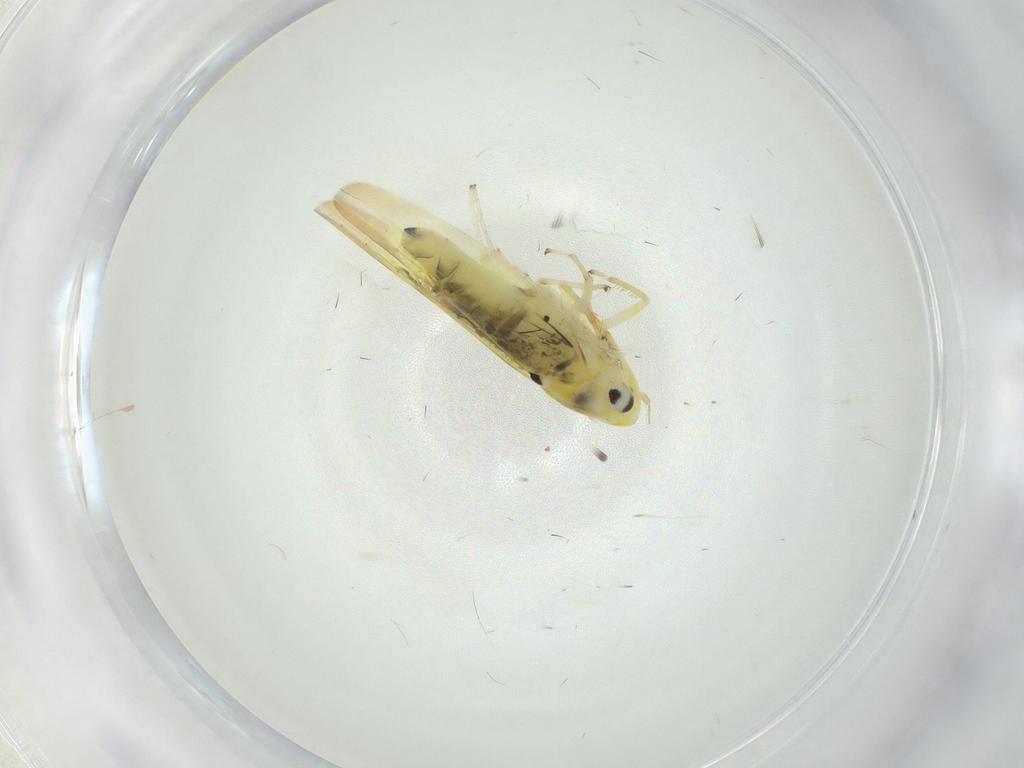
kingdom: Animalia
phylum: Arthropoda
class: Insecta
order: Hemiptera
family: Cicadellidae
